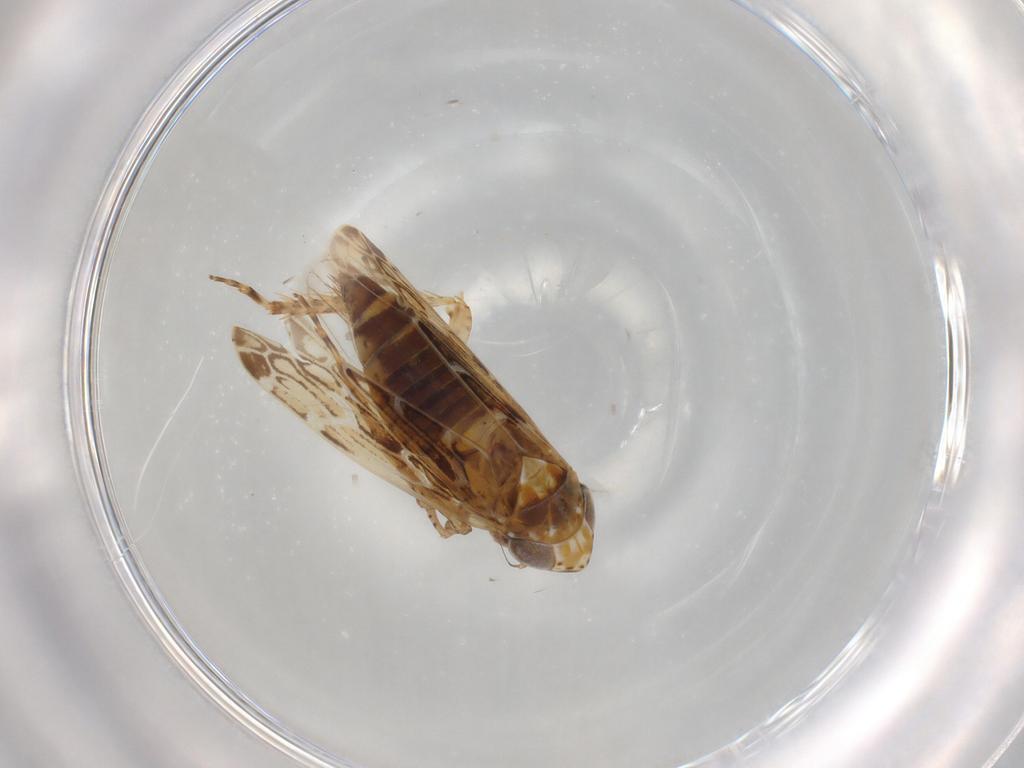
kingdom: Animalia
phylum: Arthropoda
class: Insecta
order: Hemiptera
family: Cicadellidae
